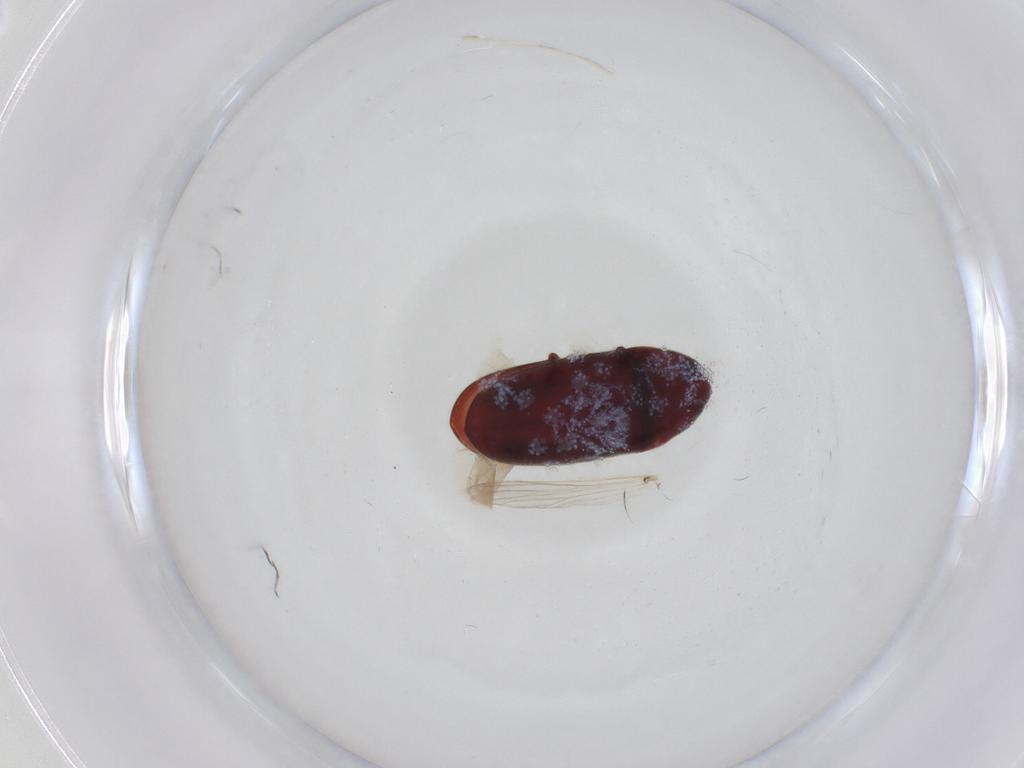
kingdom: Animalia
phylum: Arthropoda
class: Insecta
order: Coleoptera
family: Throscidae
